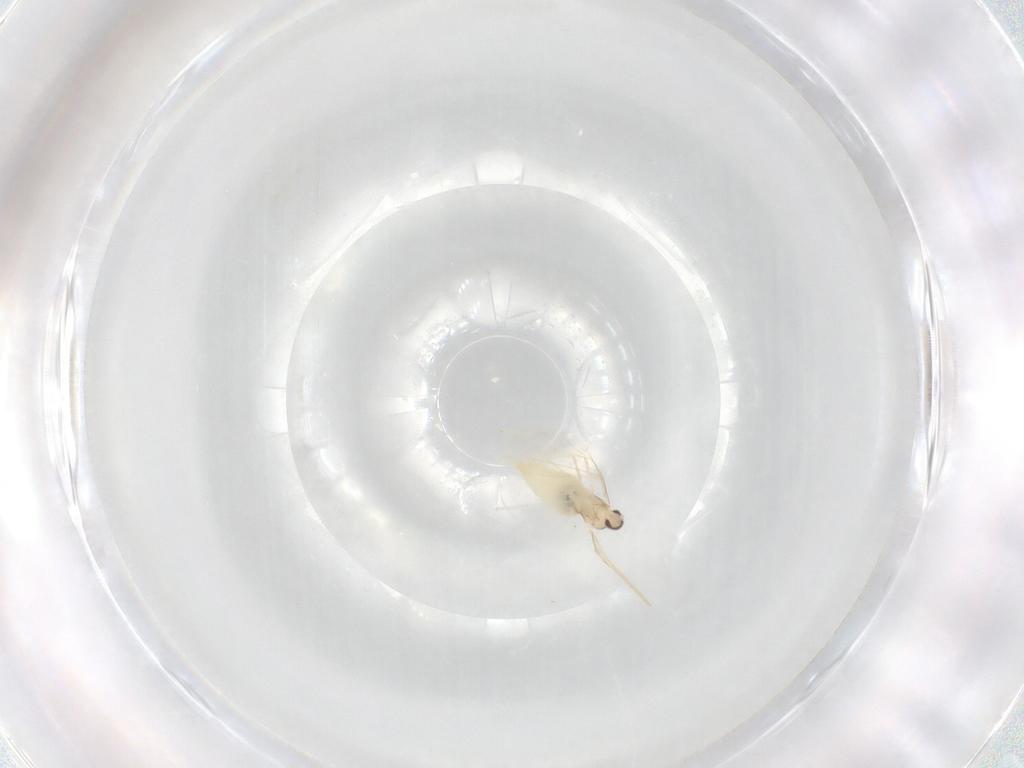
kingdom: Animalia
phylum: Arthropoda
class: Insecta
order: Diptera
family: Cecidomyiidae
